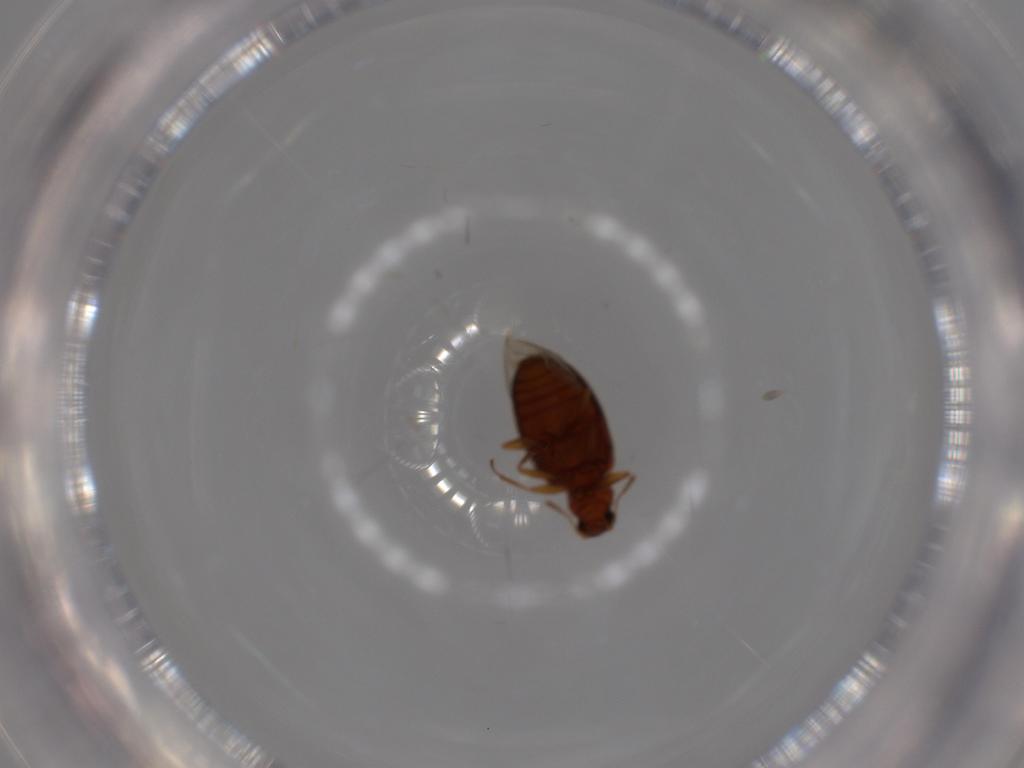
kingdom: Animalia
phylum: Arthropoda
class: Insecta
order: Coleoptera
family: Latridiidae
